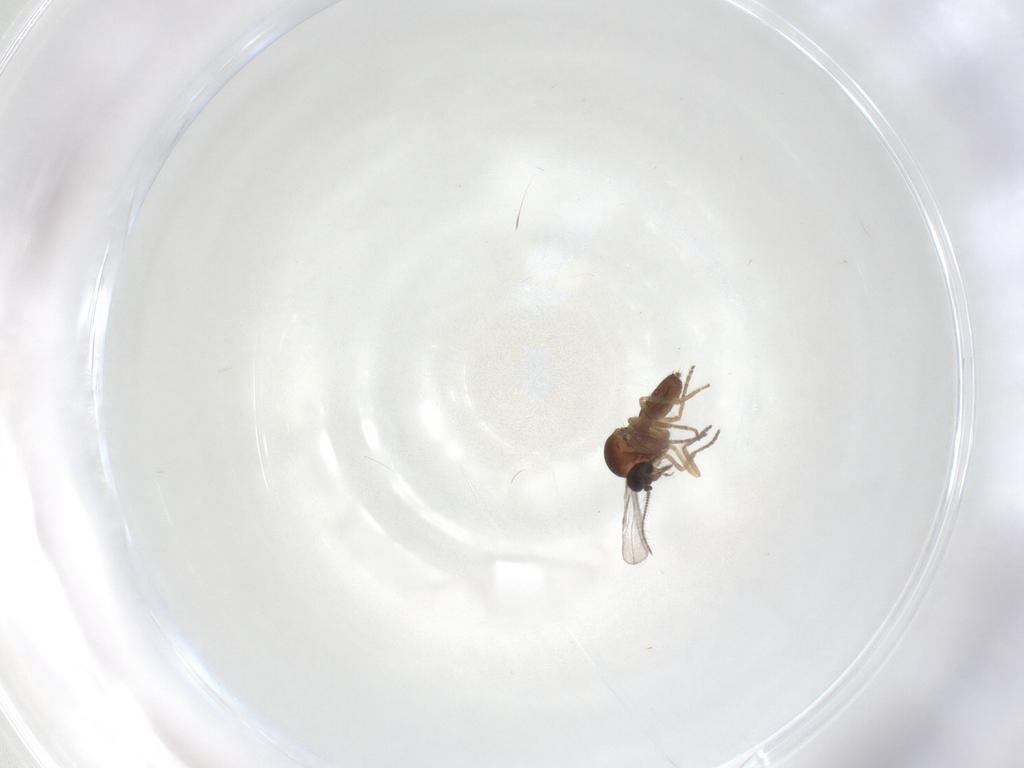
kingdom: Animalia
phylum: Arthropoda
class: Insecta
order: Diptera
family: Ceratopogonidae
